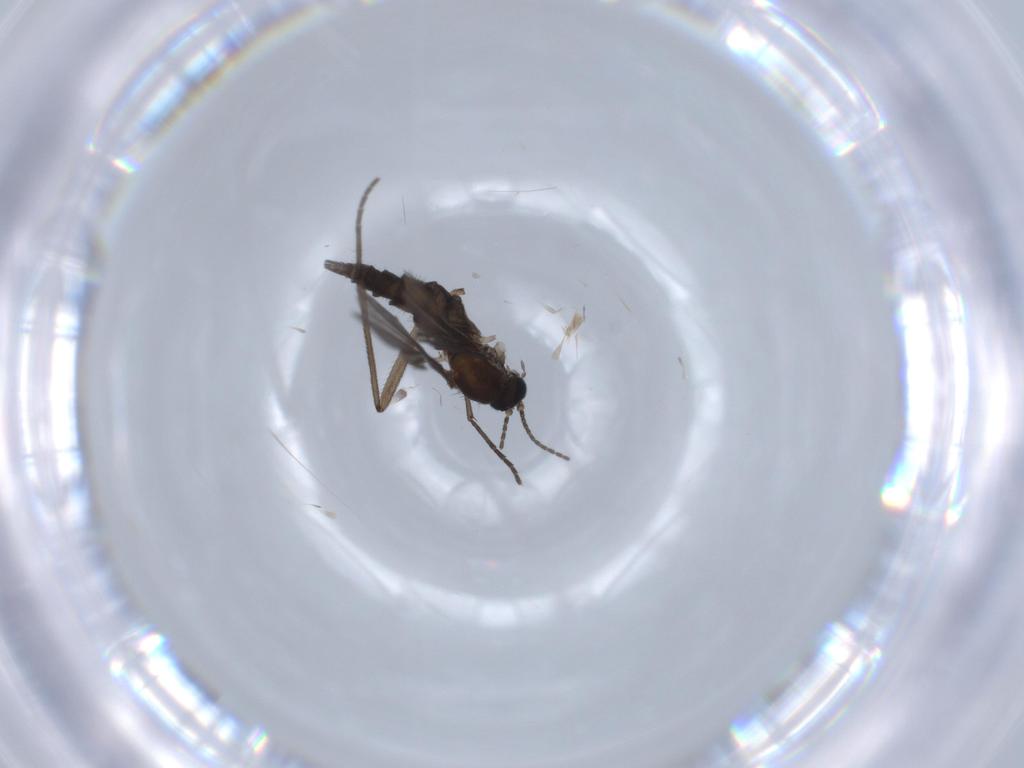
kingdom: Animalia
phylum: Arthropoda
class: Insecta
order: Diptera
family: Sciaridae
